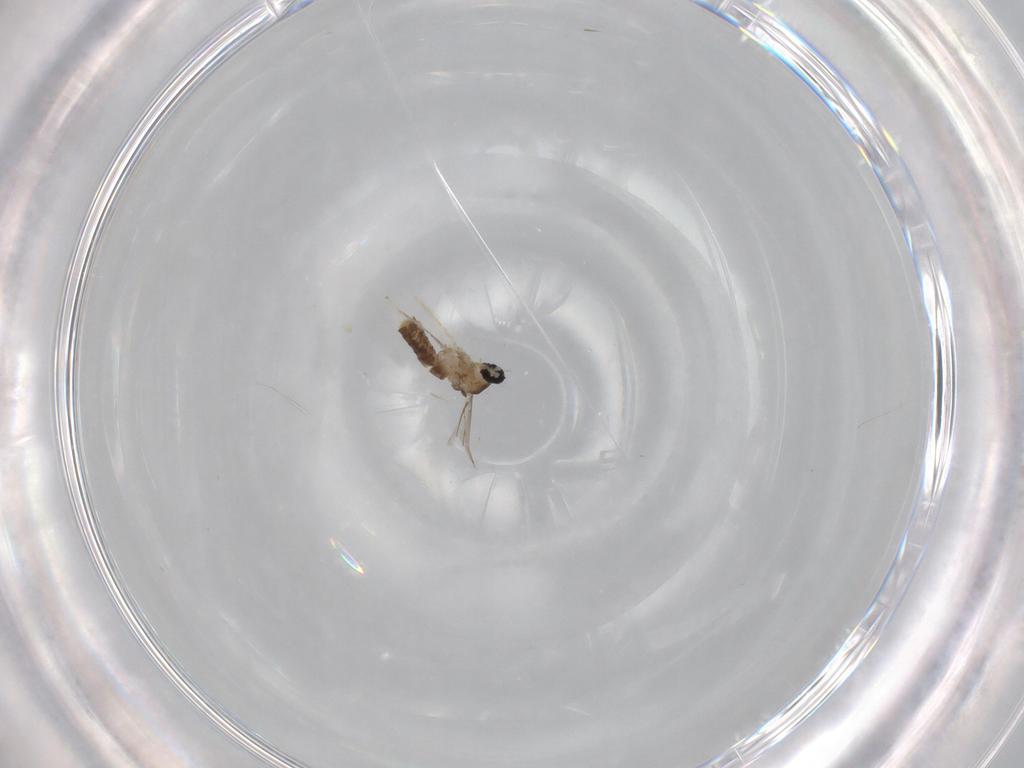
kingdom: Animalia
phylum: Arthropoda
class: Insecta
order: Diptera
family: Cecidomyiidae
